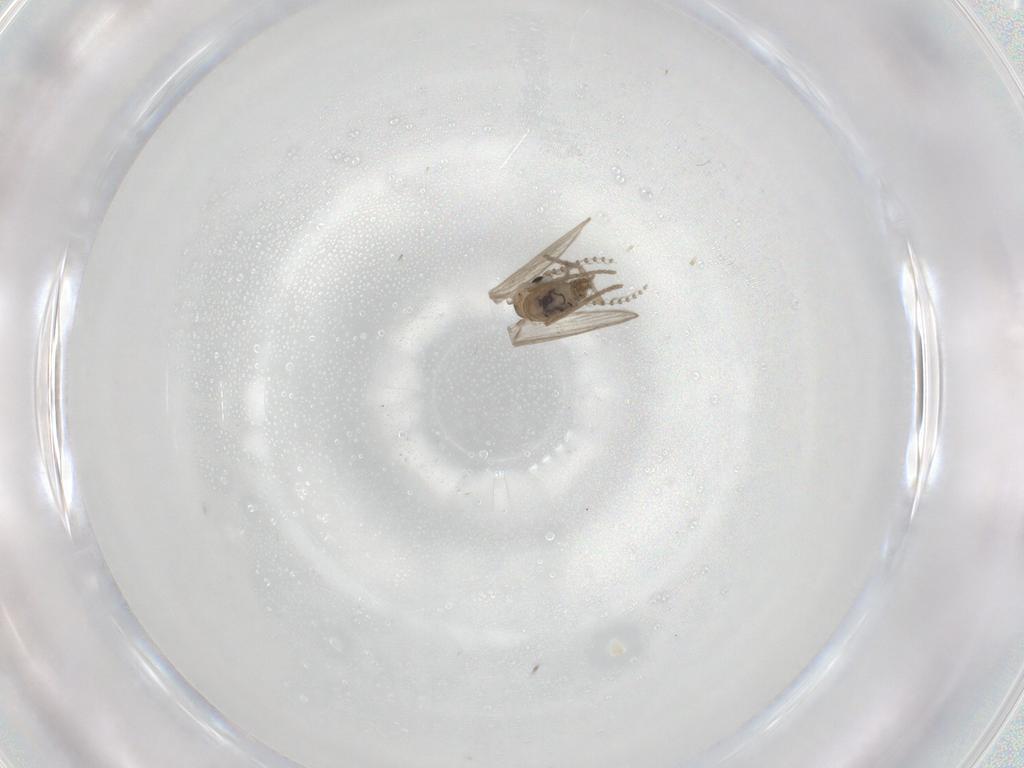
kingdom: Animalia
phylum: Arthropoda
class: Insecta
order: Diptera
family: Psychodidae
